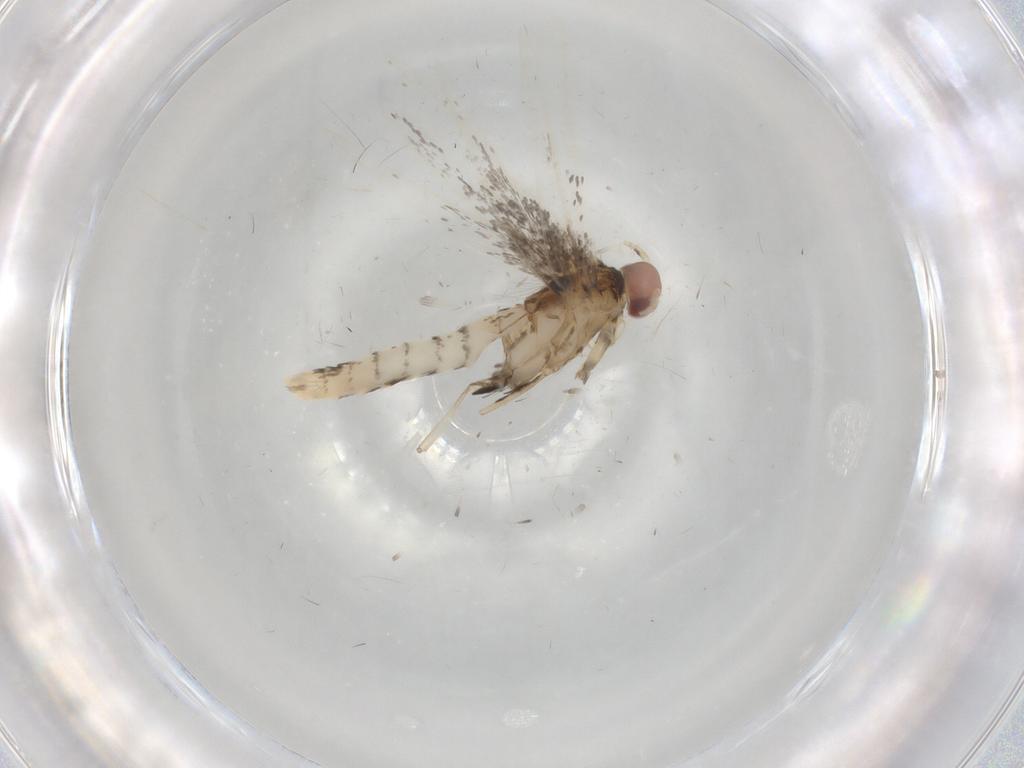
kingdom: Animalia
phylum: Arthropoda
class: Insecta
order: Lepidoptera
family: Gracillariidae
